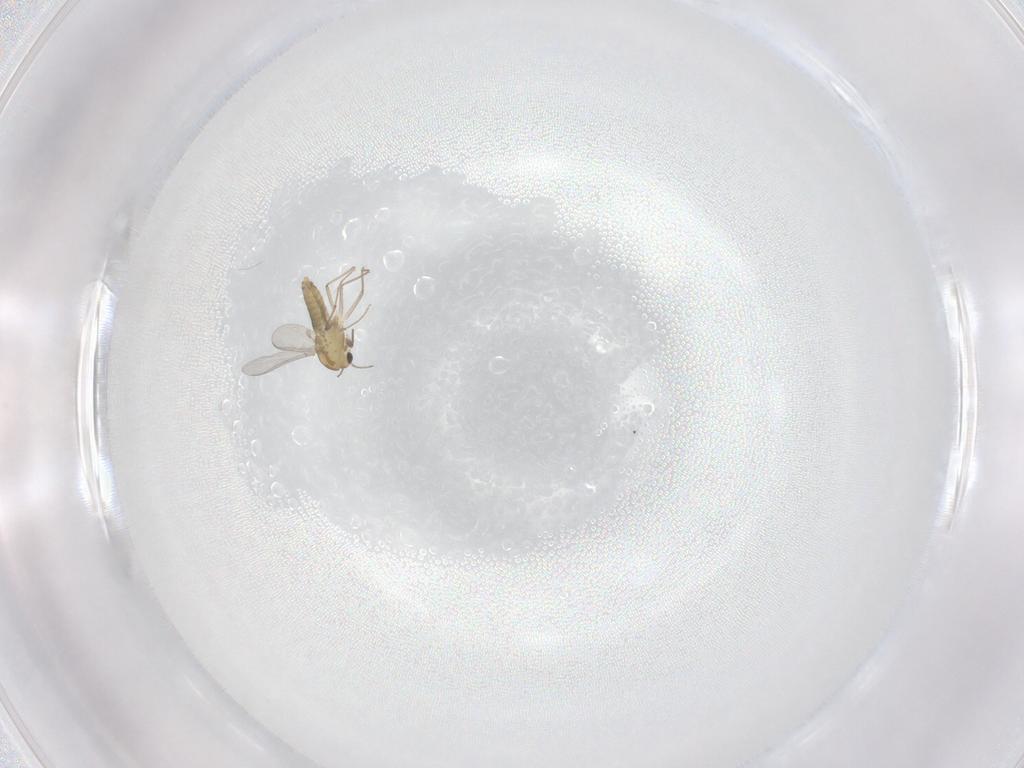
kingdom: Animalia
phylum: Arthropoda
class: Insecta
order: Diptera
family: Chironomidae
